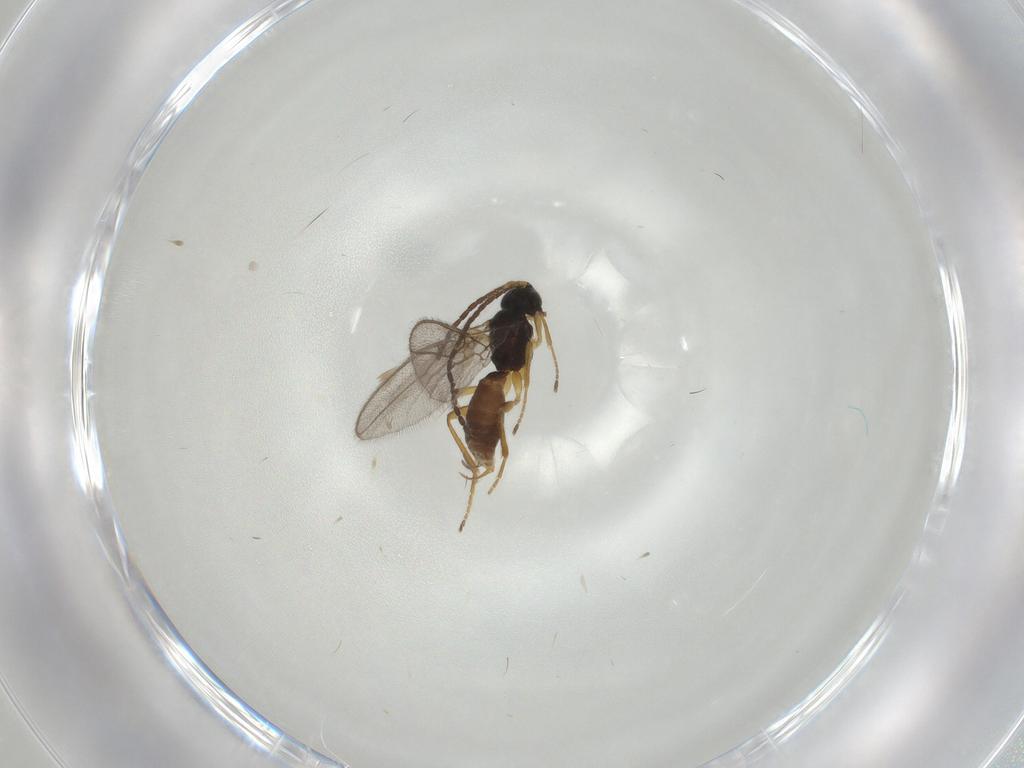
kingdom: Animalia
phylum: Arthropoda
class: Insecta
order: Hymenoptera
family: Braconidae
